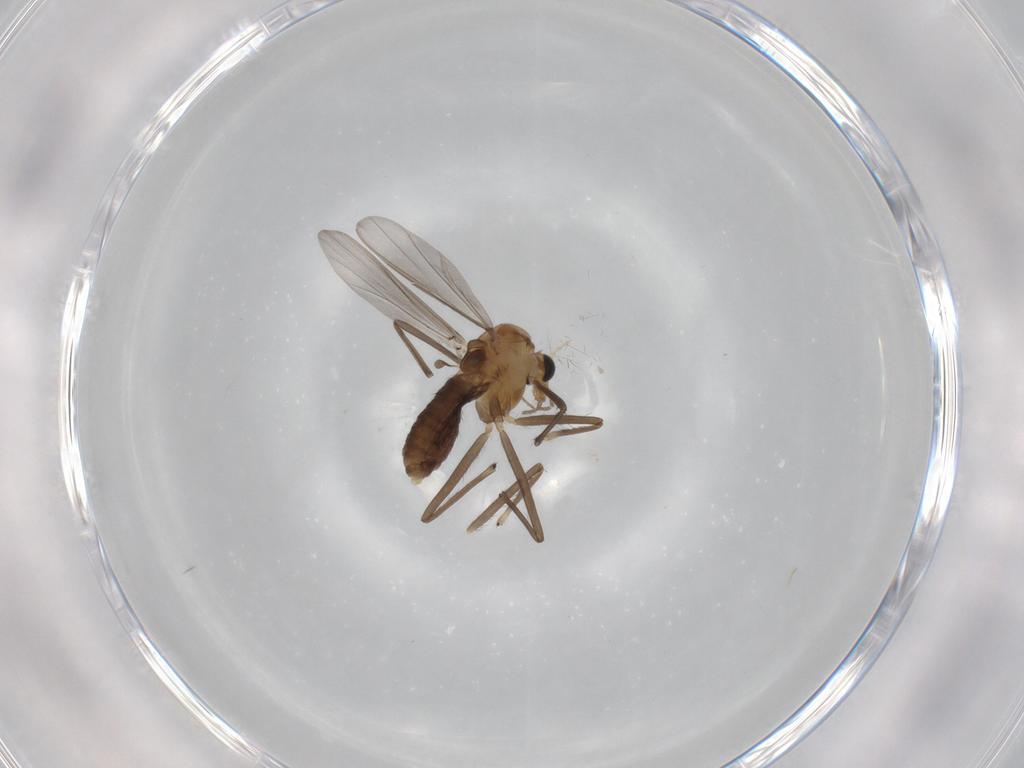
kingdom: Animalia
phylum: Arthropoda
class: Insecta
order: Diptera
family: Chironomidae
